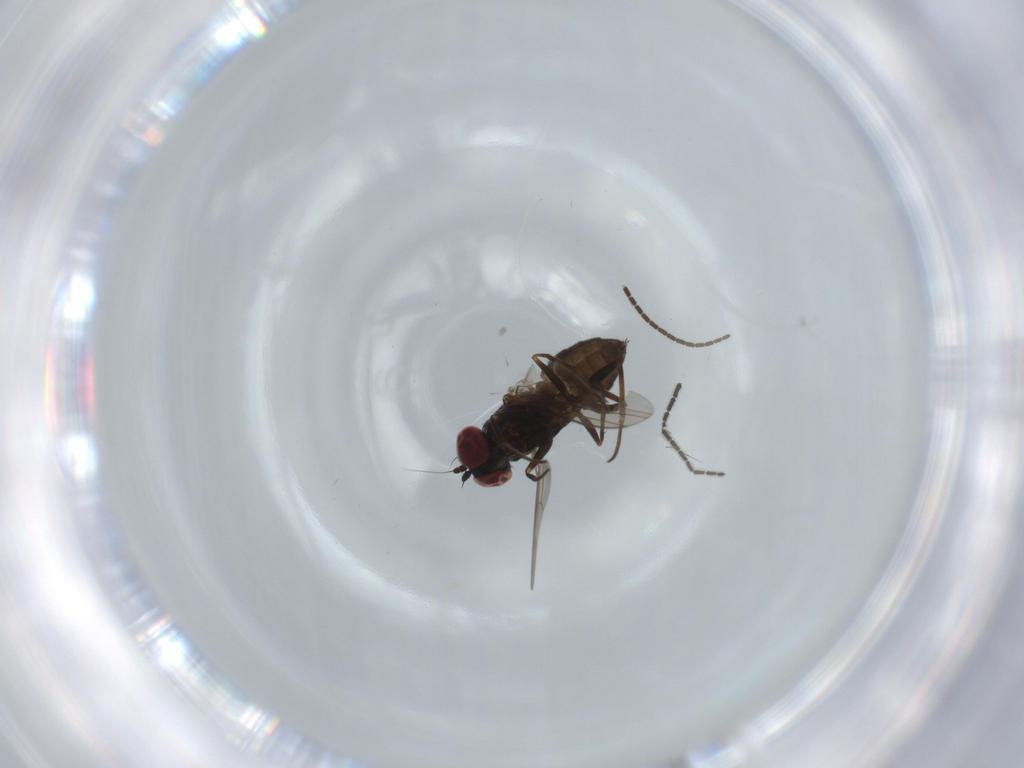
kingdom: Animalia
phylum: Arthropoda
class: Insecta
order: Diptera
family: Dolichopodidae
